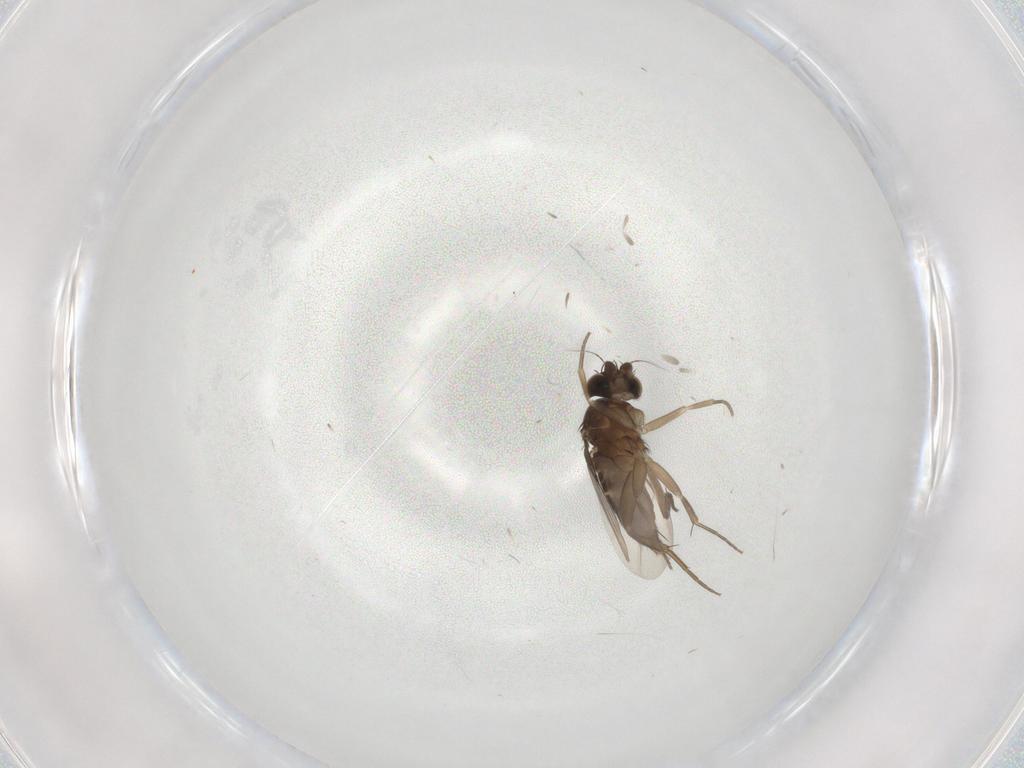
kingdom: Animalia
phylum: Arthropoda
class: Insecta
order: Diptera
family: Phoridae
